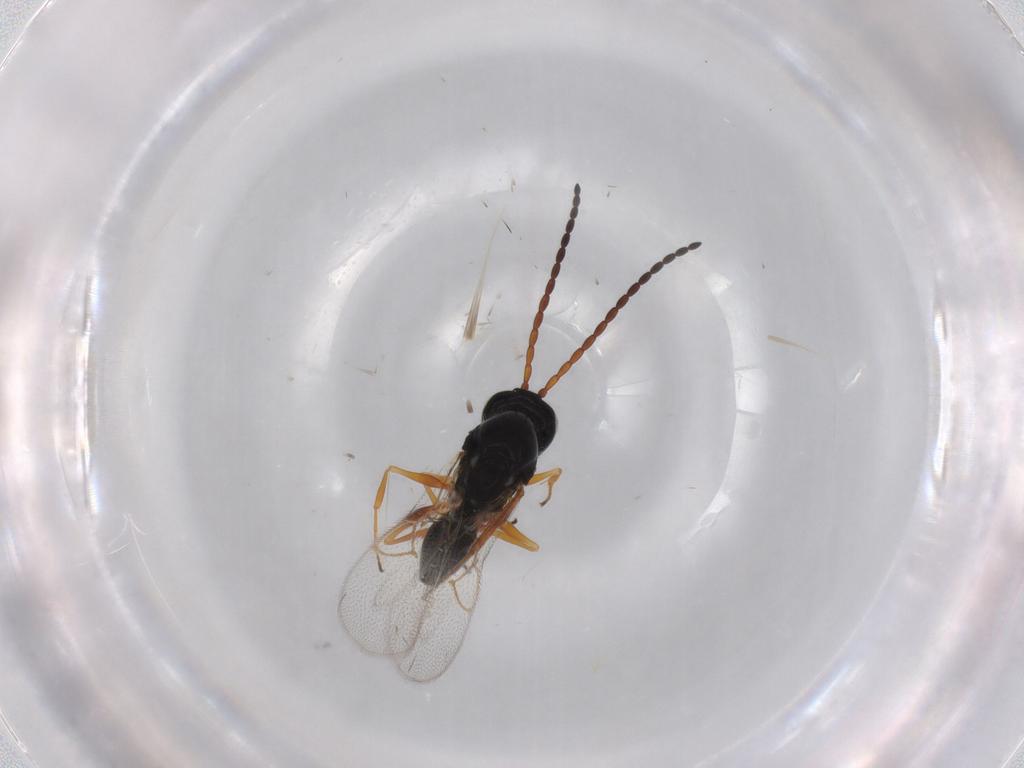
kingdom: Animalia
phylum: Arthropoda
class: Insecta
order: Hymenoptera
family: Figitidae
